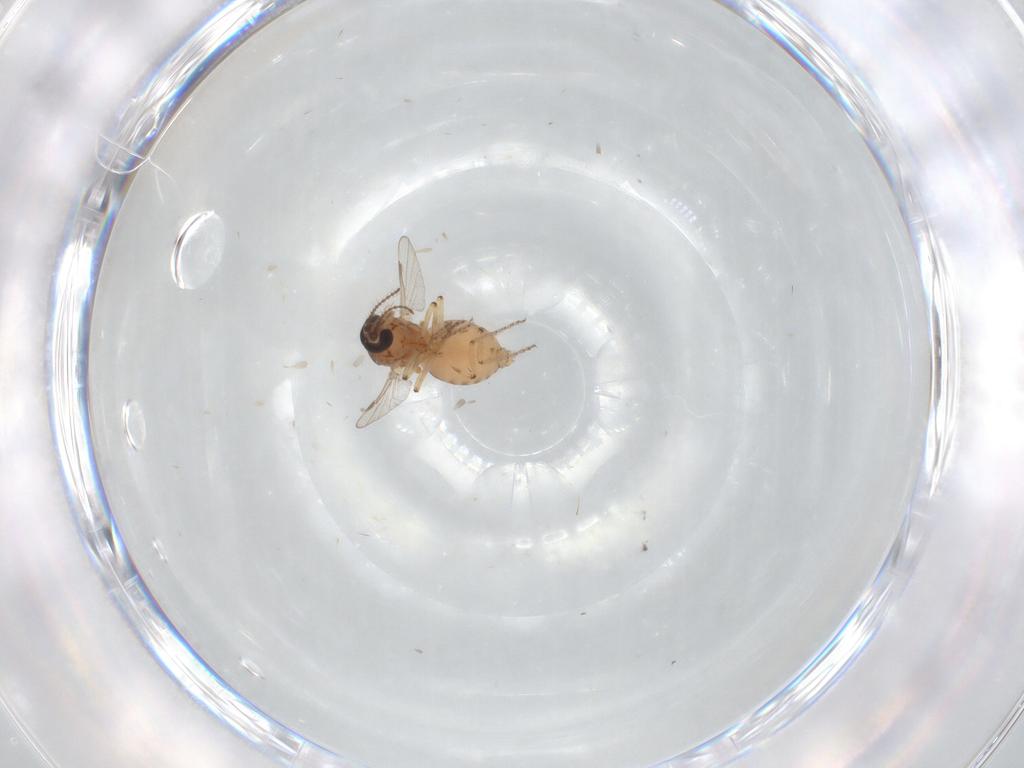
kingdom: Animalia
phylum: Arthropoda
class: Insecta
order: Diptera
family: Ceratopogonidae
